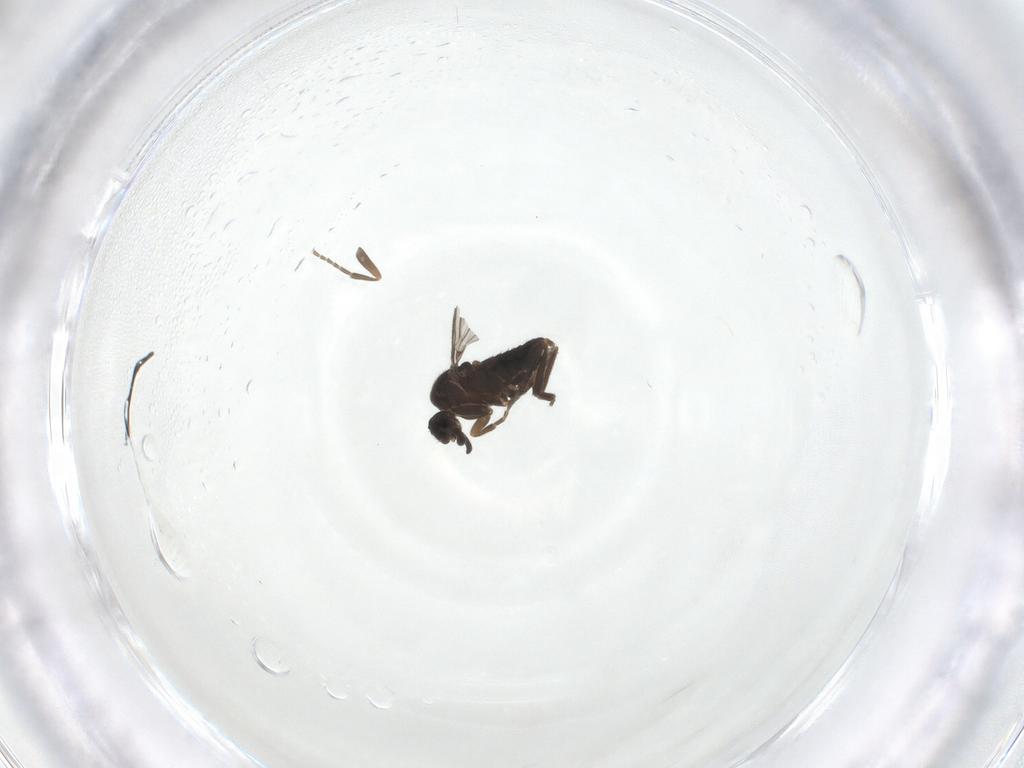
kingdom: Animalia
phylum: Arthropoda
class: Insecta
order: Diptera
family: Phoridae
